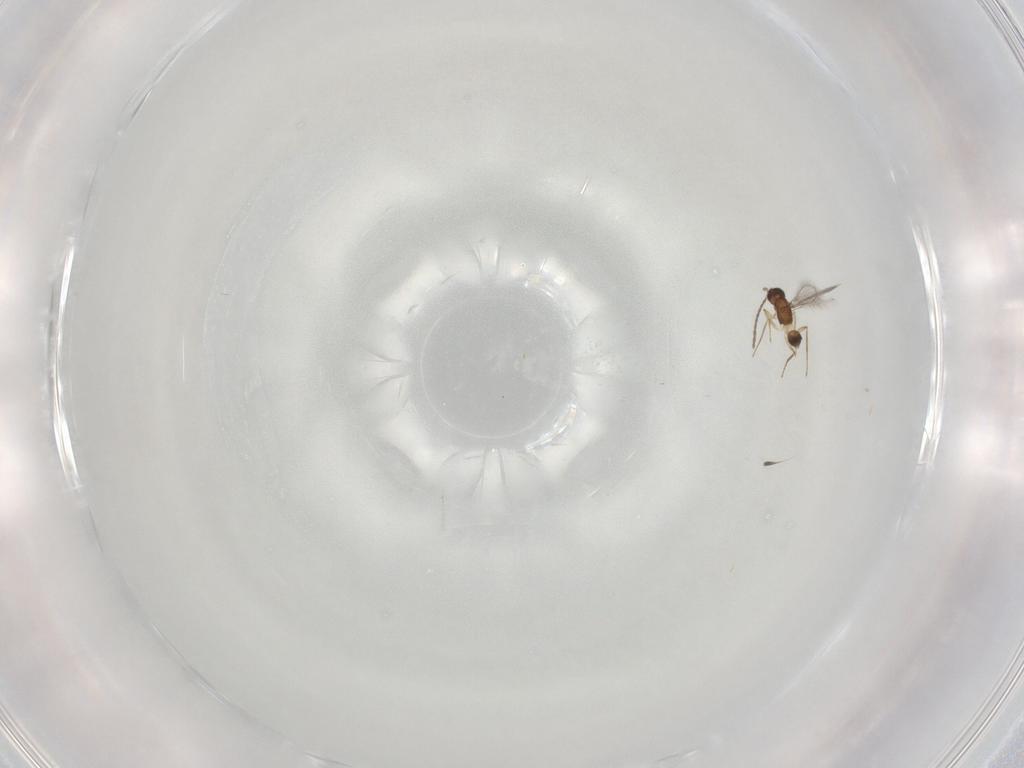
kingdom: Animalia
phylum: Arthropoda
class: Insecta
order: Hymenoptera
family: Mymaridae
